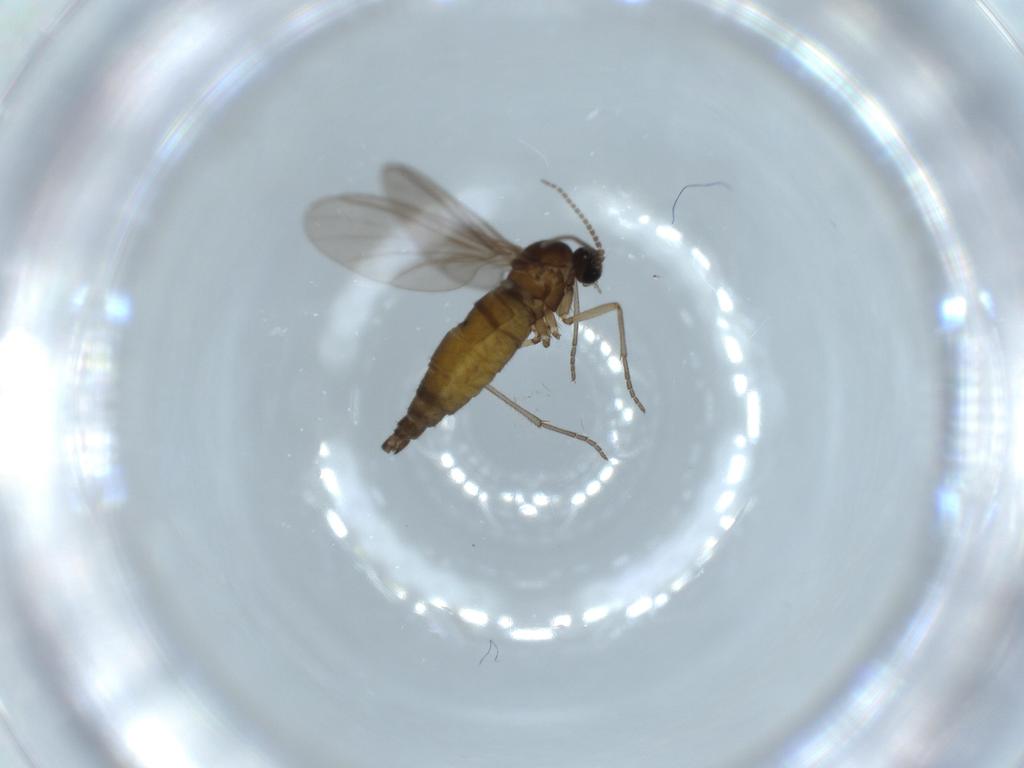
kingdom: Animalia
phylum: Arthropoda
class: Insecta
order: Diptera
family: Sciaridae
